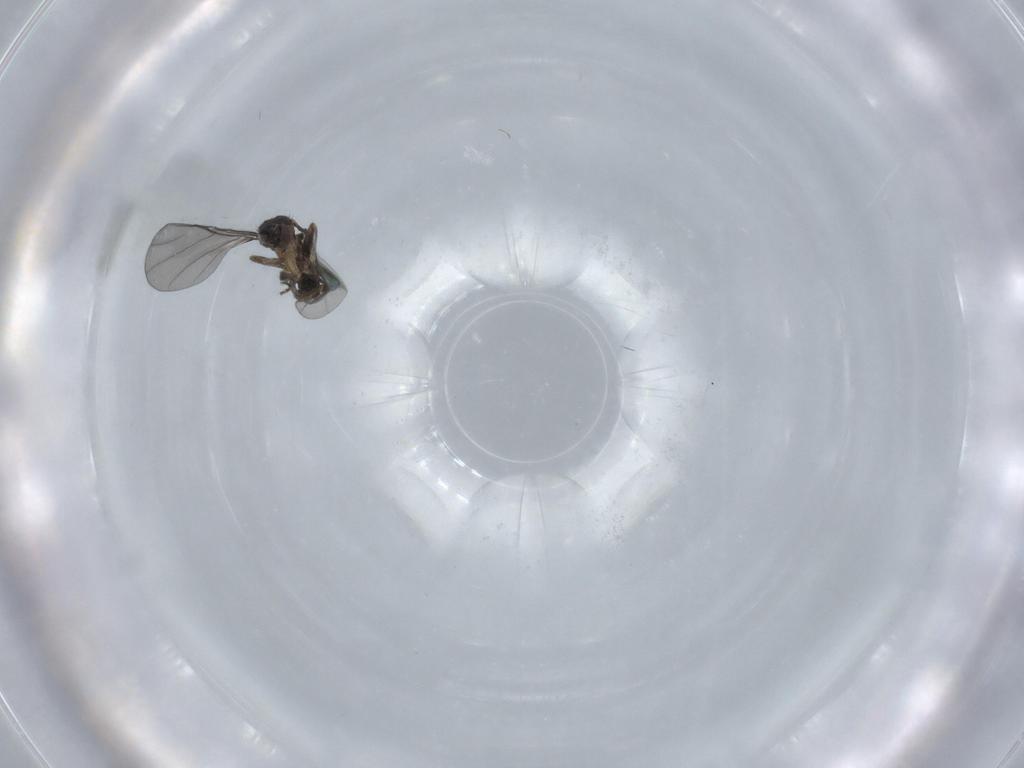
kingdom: Animalia
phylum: Arthropoda
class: Insecta
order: Diptera
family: Phoridae
